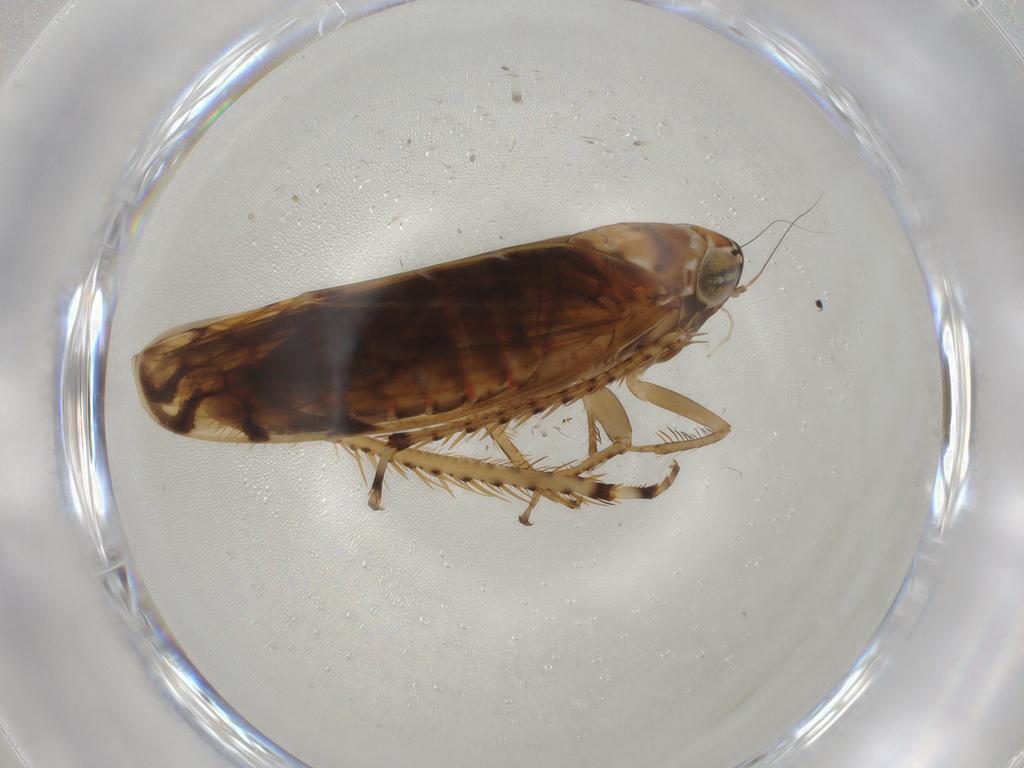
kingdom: Animalia
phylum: Arthropoda
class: Insecta
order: Hemiptera
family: Cicadellidae
